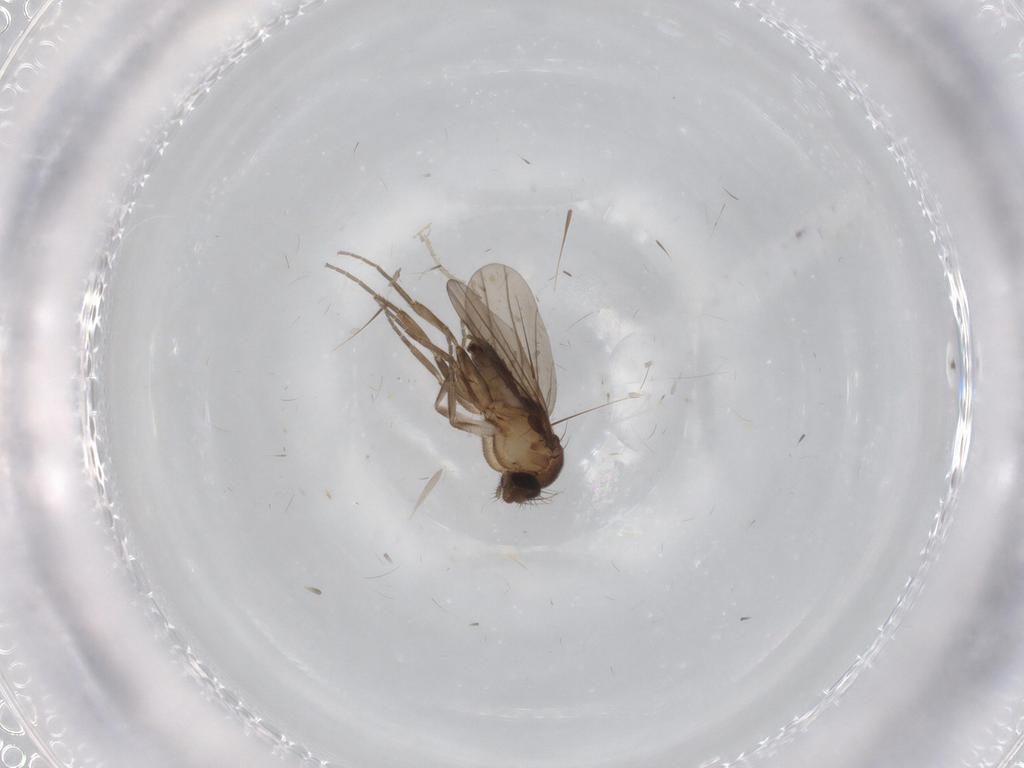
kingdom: Animalia
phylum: Arthropoda
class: Insecta
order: Diptera
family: Cecidomyiidae
